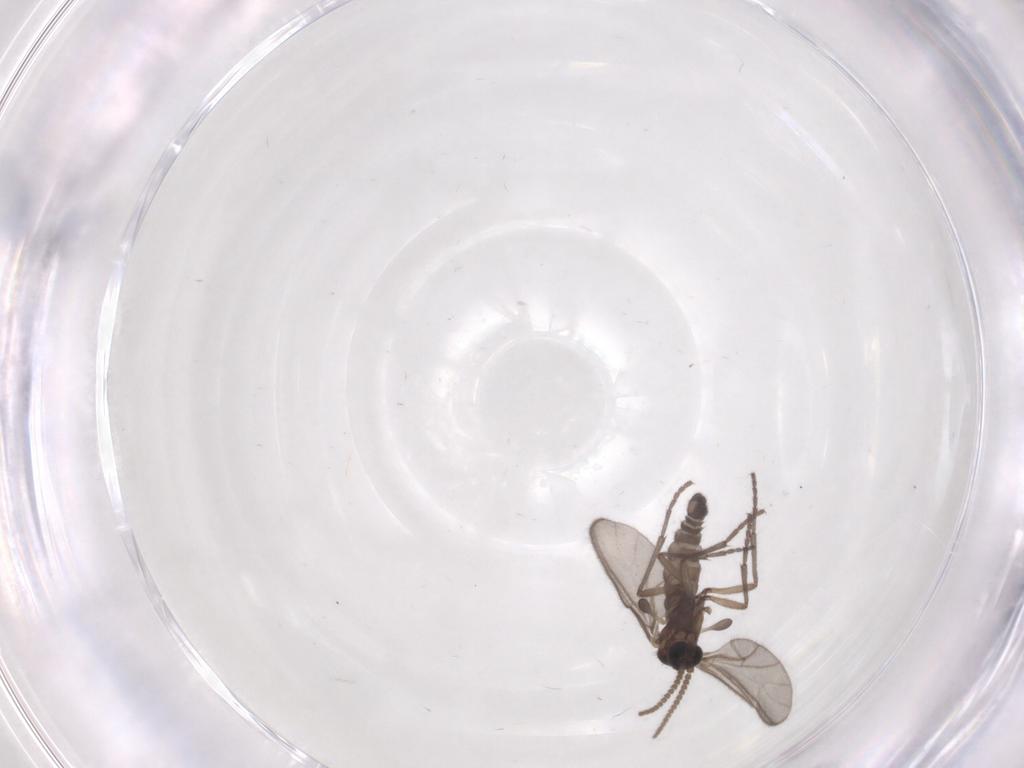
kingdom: Animalia
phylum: Arthropoda
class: Insecta
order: Diptera
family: Sciaridae
